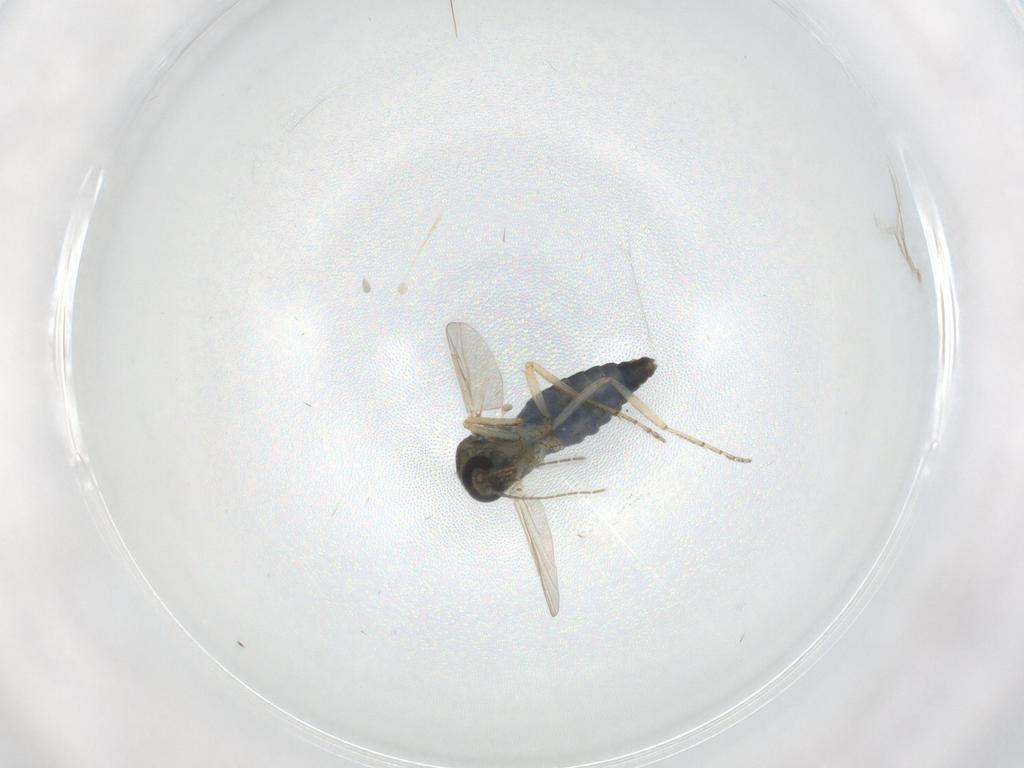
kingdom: Animalia
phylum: Arthropoda
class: Insecta
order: Diptera
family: Ceratopogonidae
